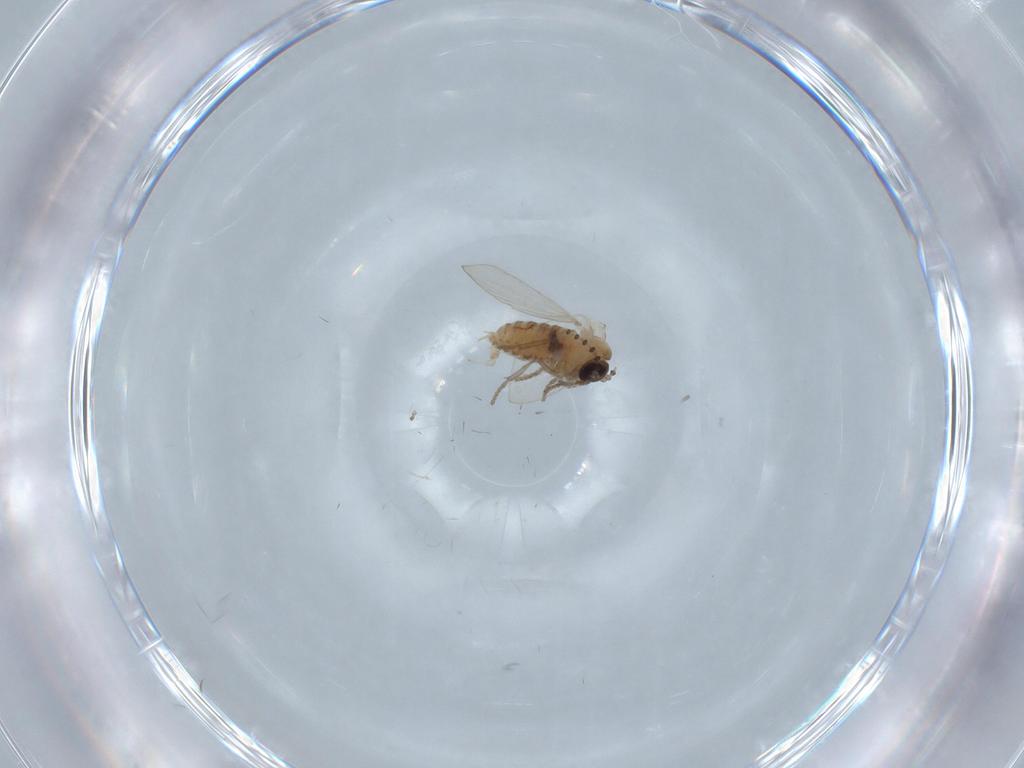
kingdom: Animalia
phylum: Arthropoda
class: Insecta
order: Diptera
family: Psychodidae
